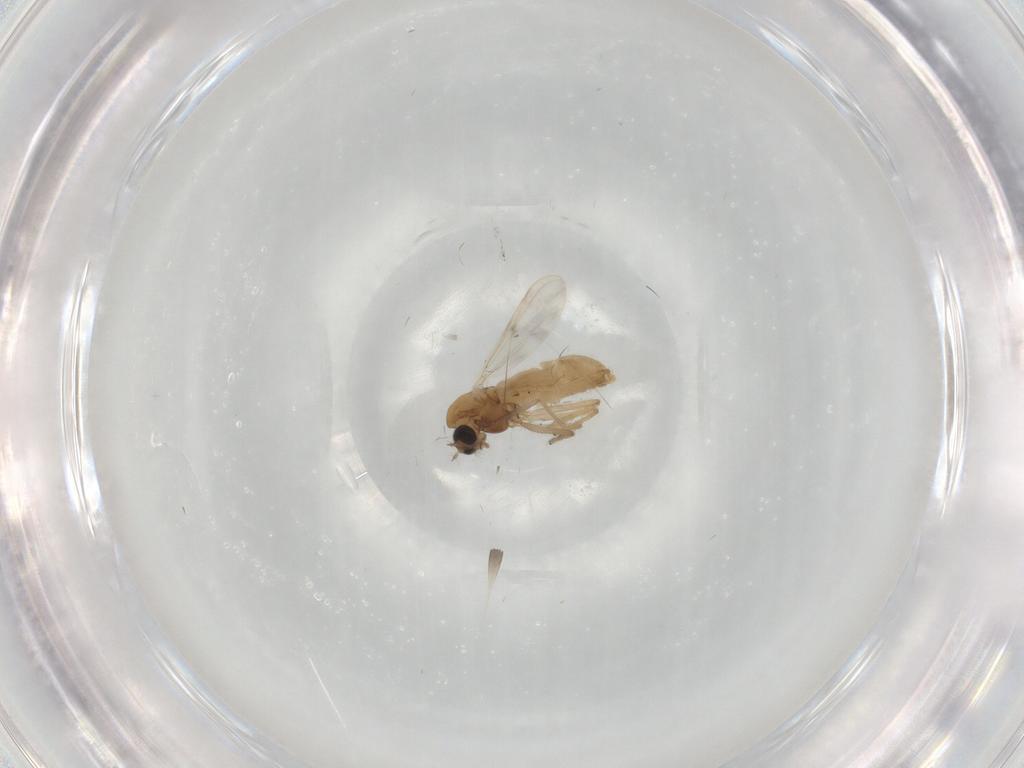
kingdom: Animalia
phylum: Arthropoda
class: Insecta
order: Diptera
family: Chironomidae
